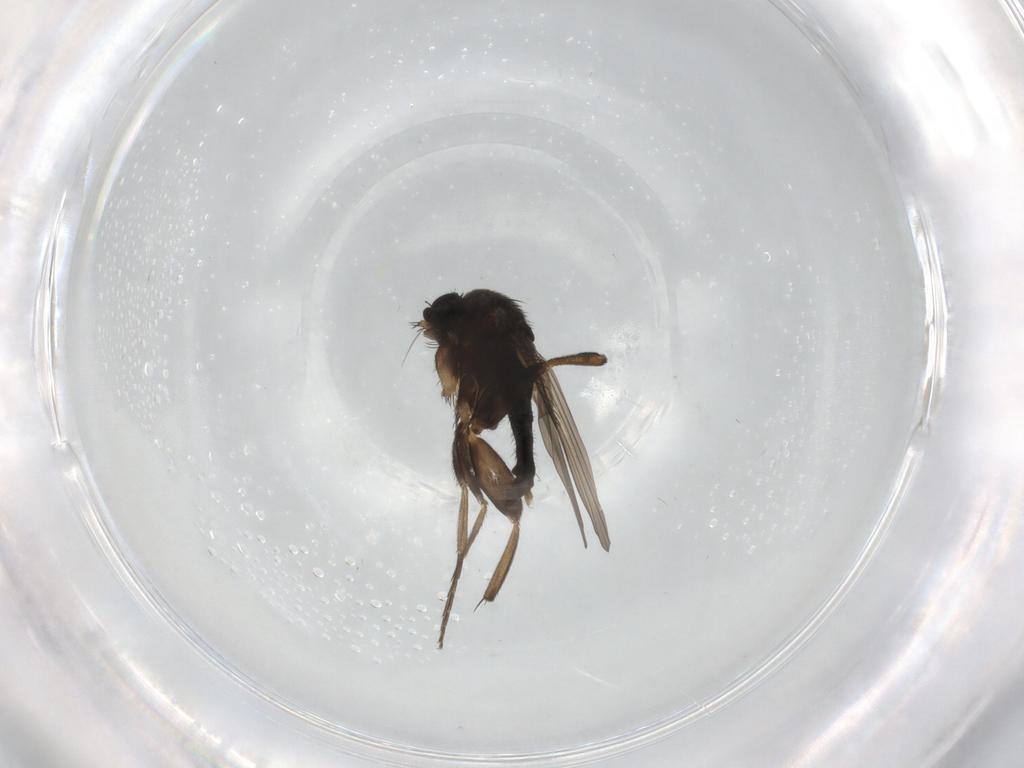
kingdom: Animalia
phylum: Arthropoda
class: Insecta
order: Diptera
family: Phoridae
